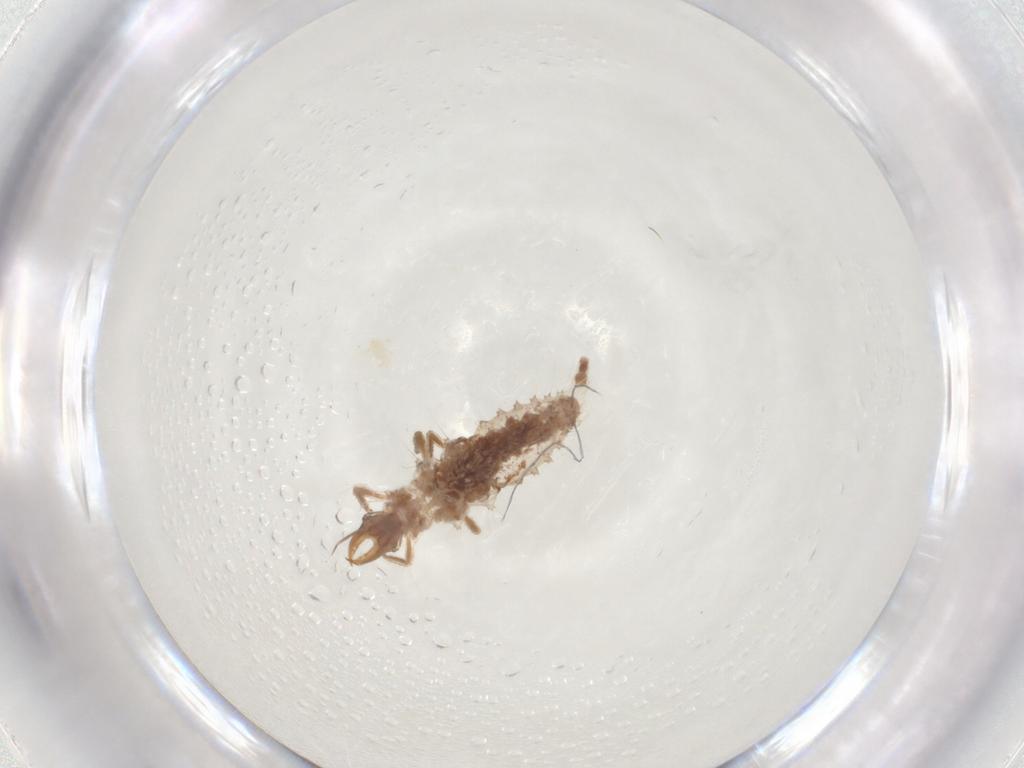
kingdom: Animalia
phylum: Arthropoda
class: Insecta
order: Neuroptera
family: Chrysopidae
